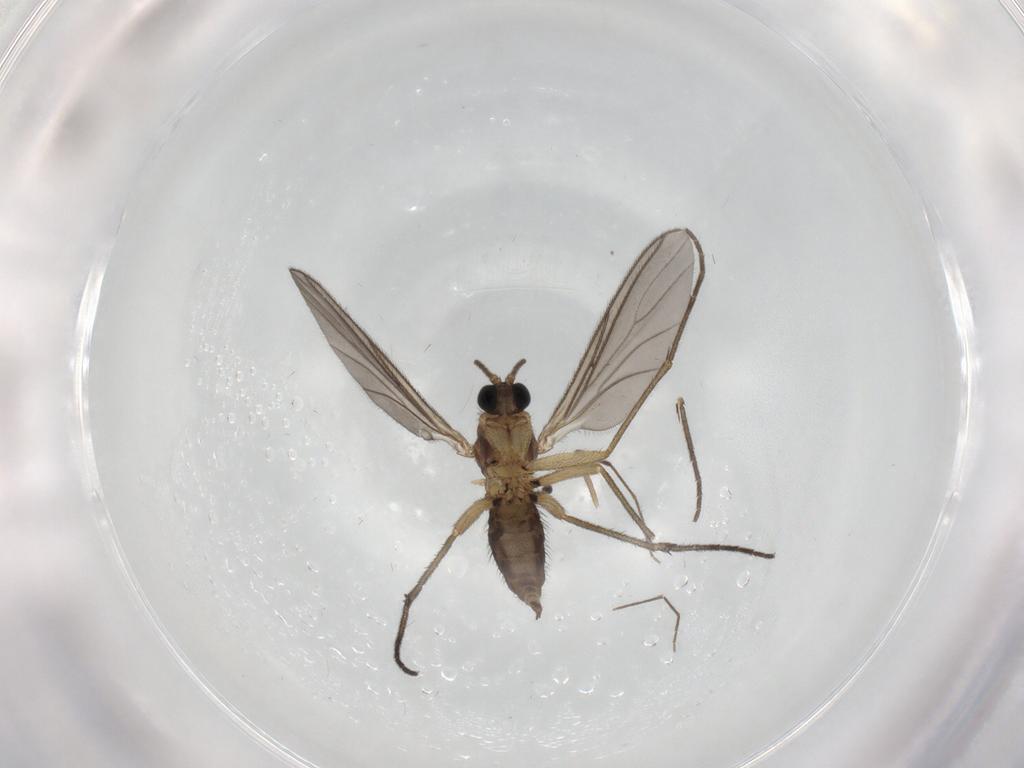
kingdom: Animalia
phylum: Arthropoda
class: Insecta
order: Diptera
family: Sciaridae
